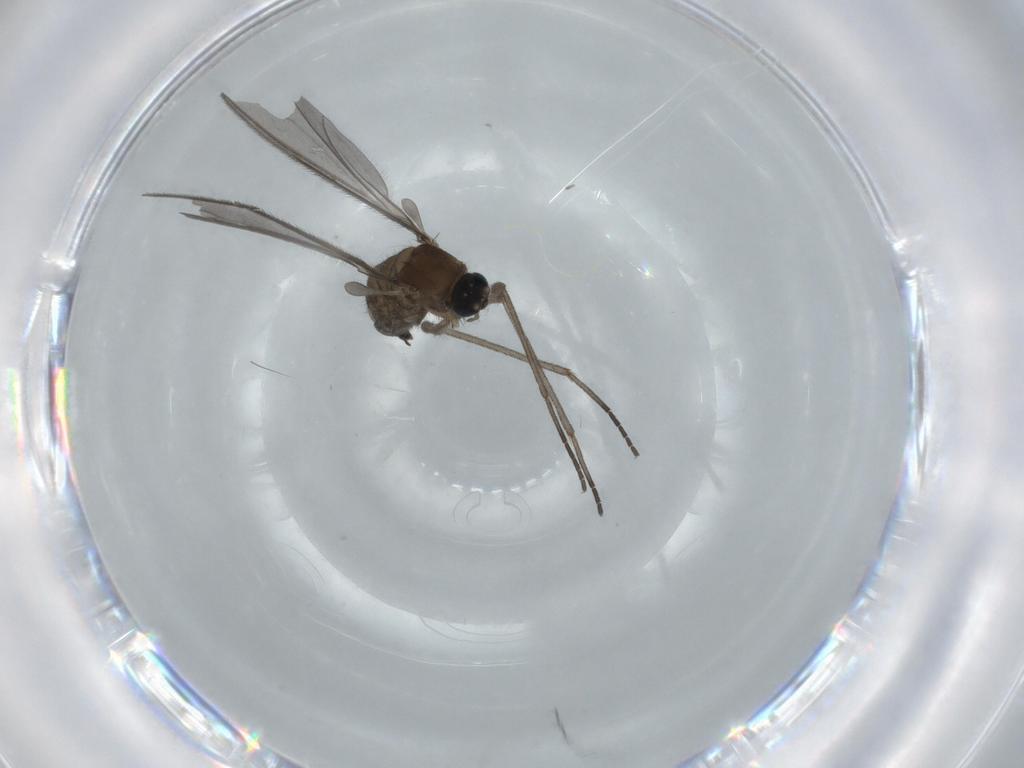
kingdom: Animalia
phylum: Arthropoda
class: Insecta
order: Diptera
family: Sciaridae
